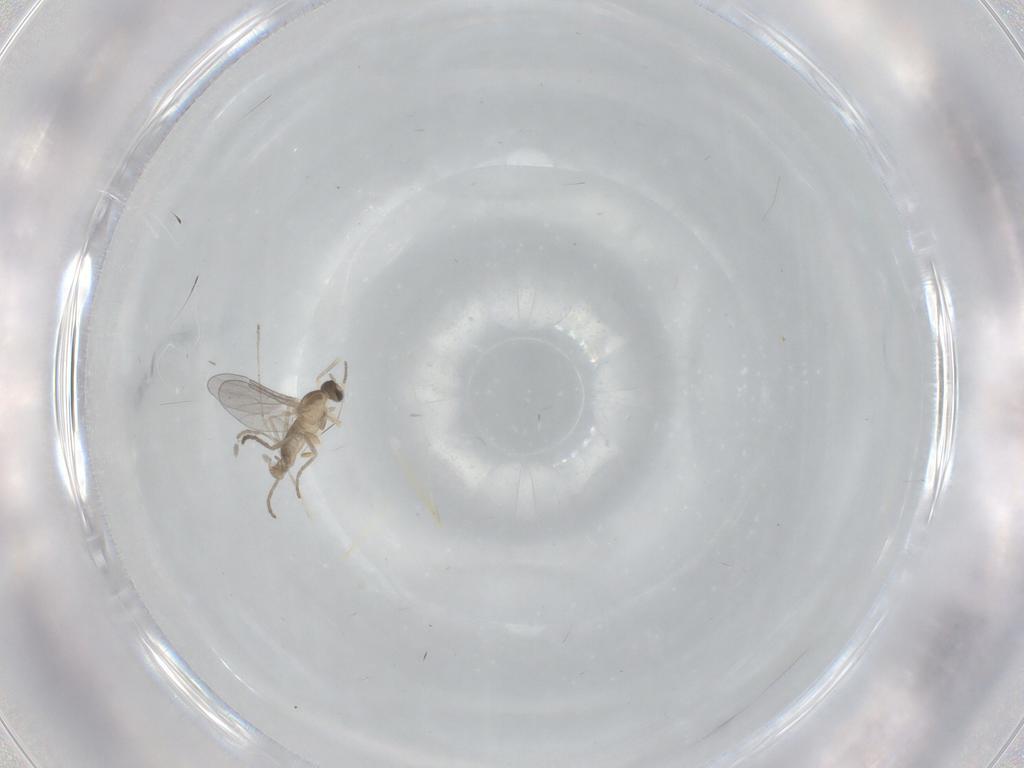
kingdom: Animalia
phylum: Arthropoda
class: Insecta
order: Diptera
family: Cecidomyiidae
